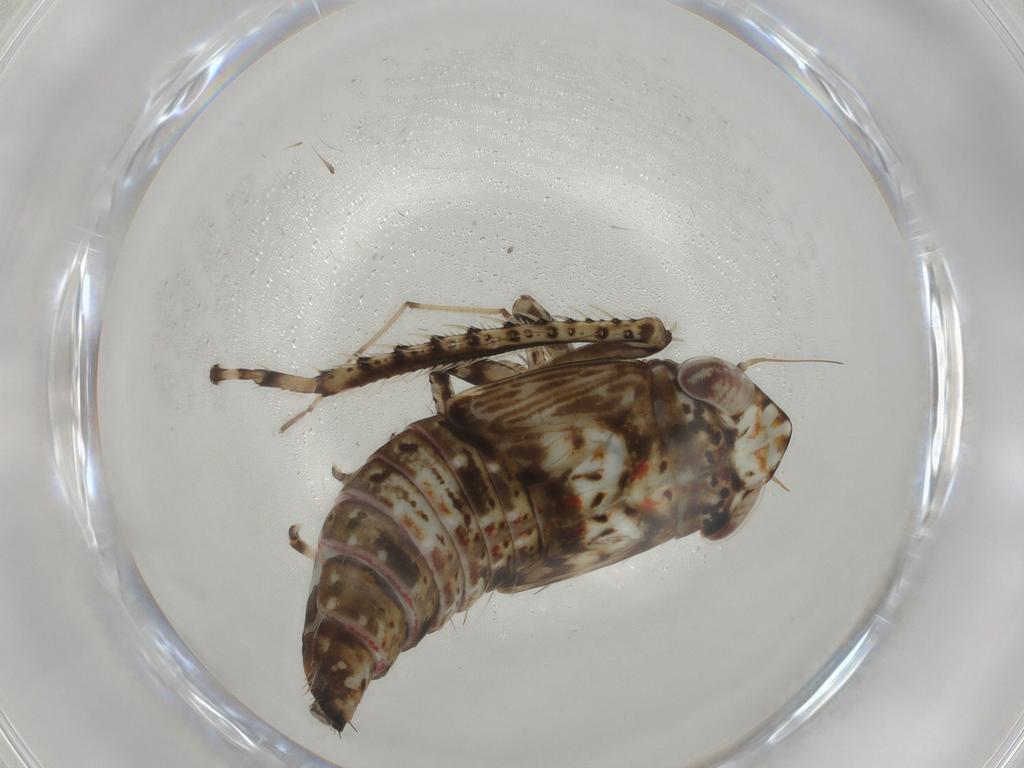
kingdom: Animalia
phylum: Arthropoda
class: Insecta
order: Hemiptera
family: Cicadellidae
